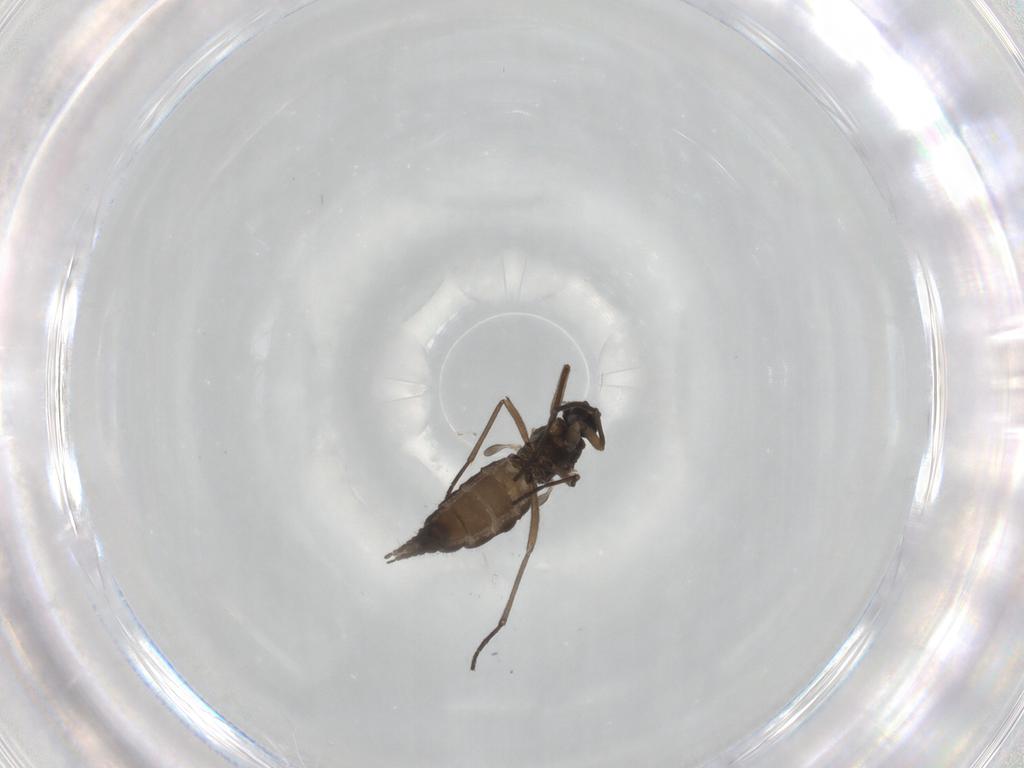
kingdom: Animalia
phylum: Arthropoda
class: Insecta
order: Diptera
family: Sciaridae
